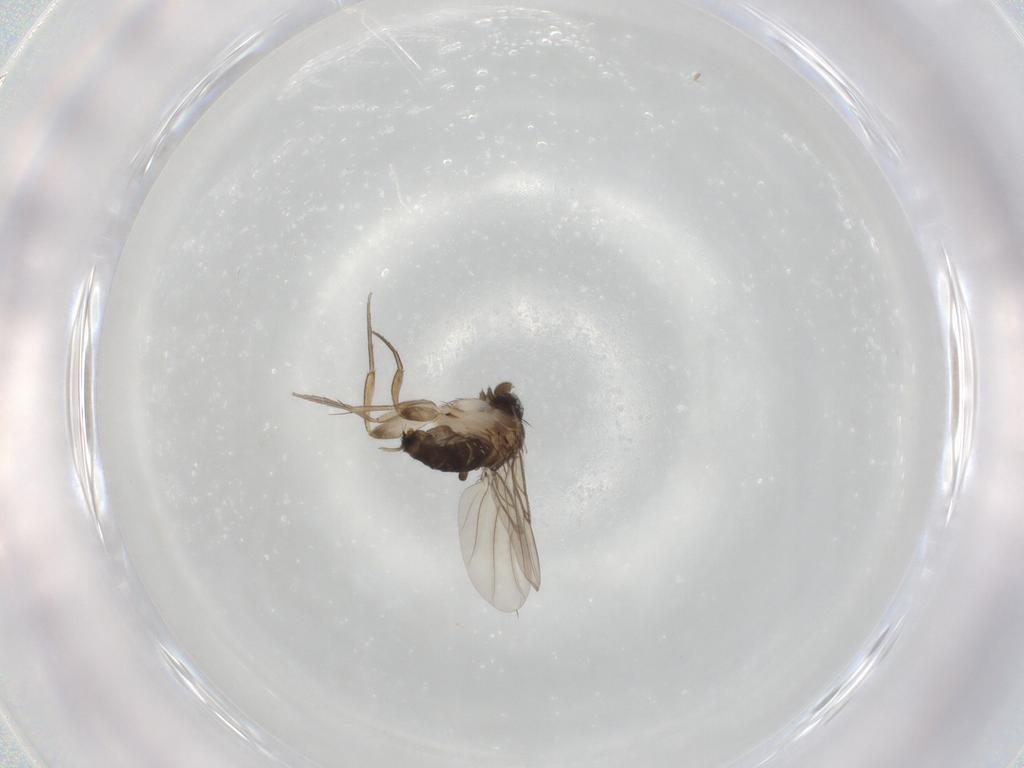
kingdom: Animalia
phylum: Arthropoda
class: Insecta
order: Diptera
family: Phoridae
